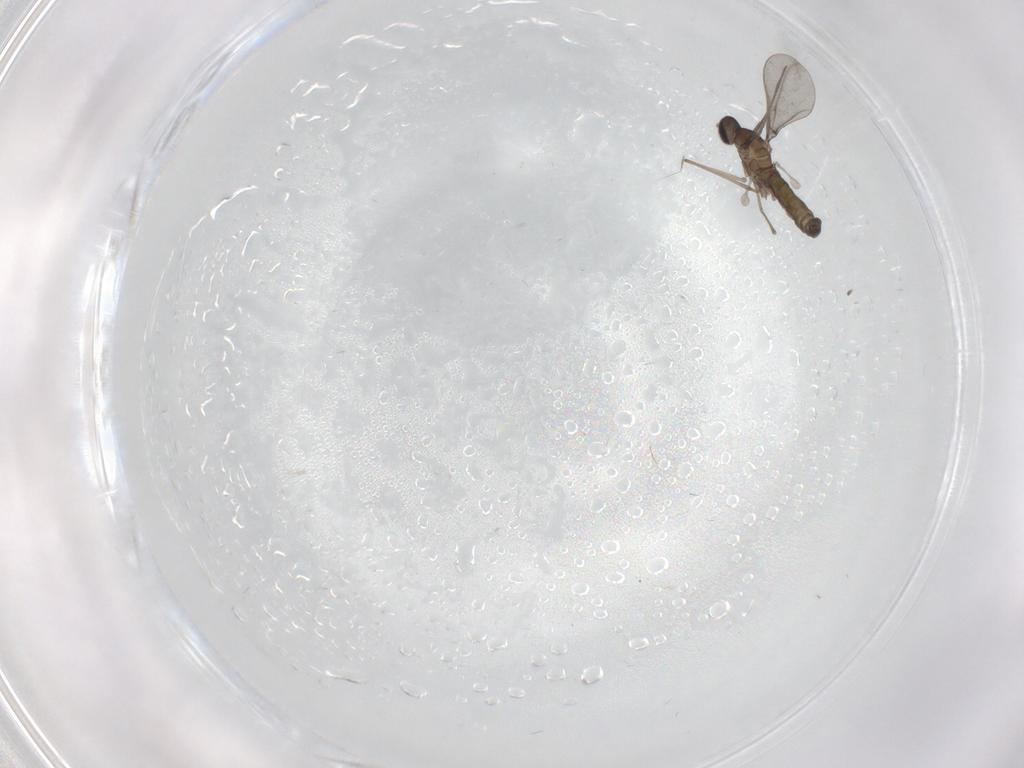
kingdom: Animalia
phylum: Arthropoda
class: Insecta
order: Diptera
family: Cecidomyiidae
